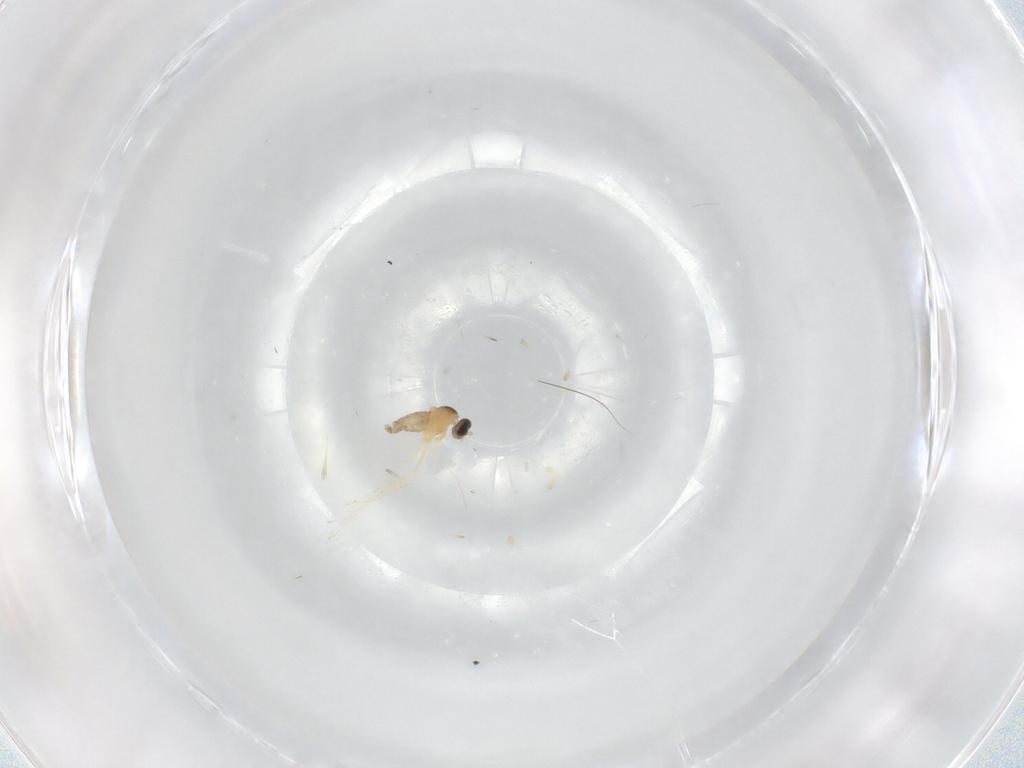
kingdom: Animalia
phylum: Arthropoda
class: Insecta
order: Diptera
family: Cecidomyiidae
